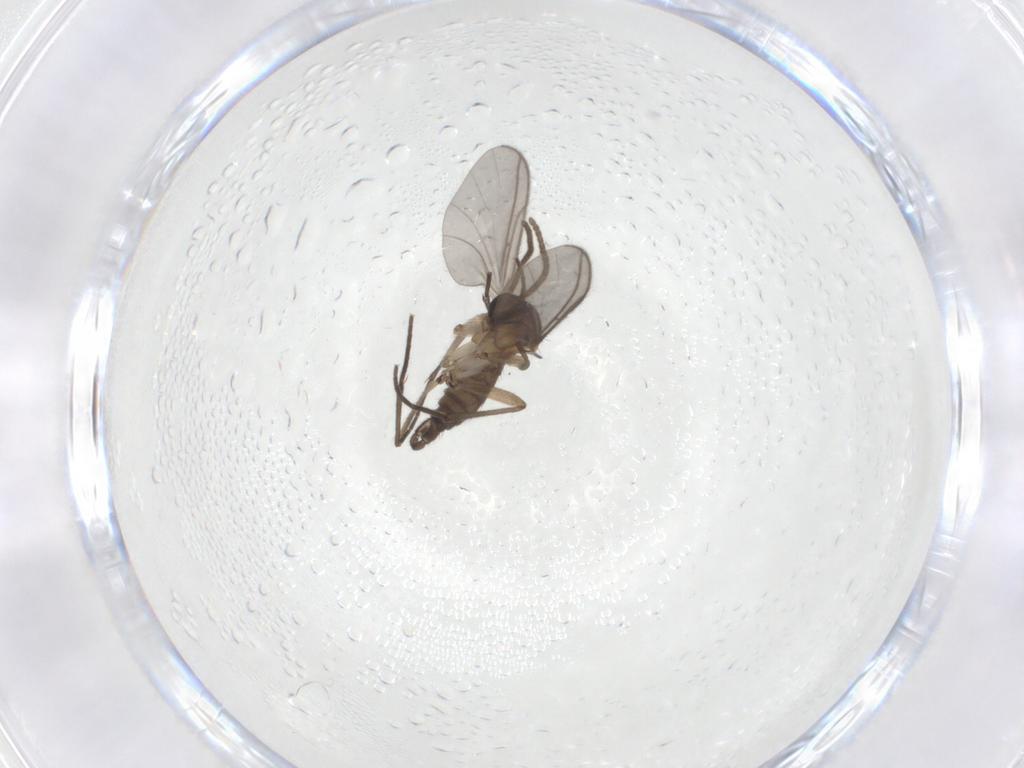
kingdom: Animalia
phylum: Arthropoda
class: Insecta
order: Diptera
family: Sciaridae
